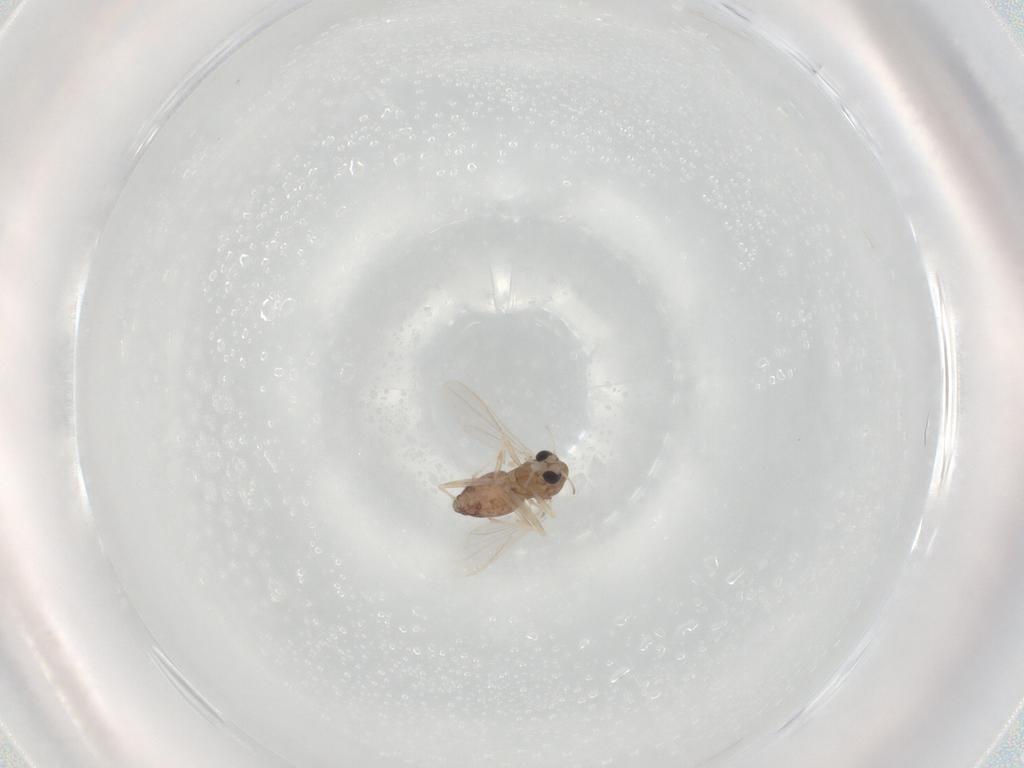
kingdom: Animalia
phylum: Arthropoda
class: Insecta
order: Diptera
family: Chironomidae
